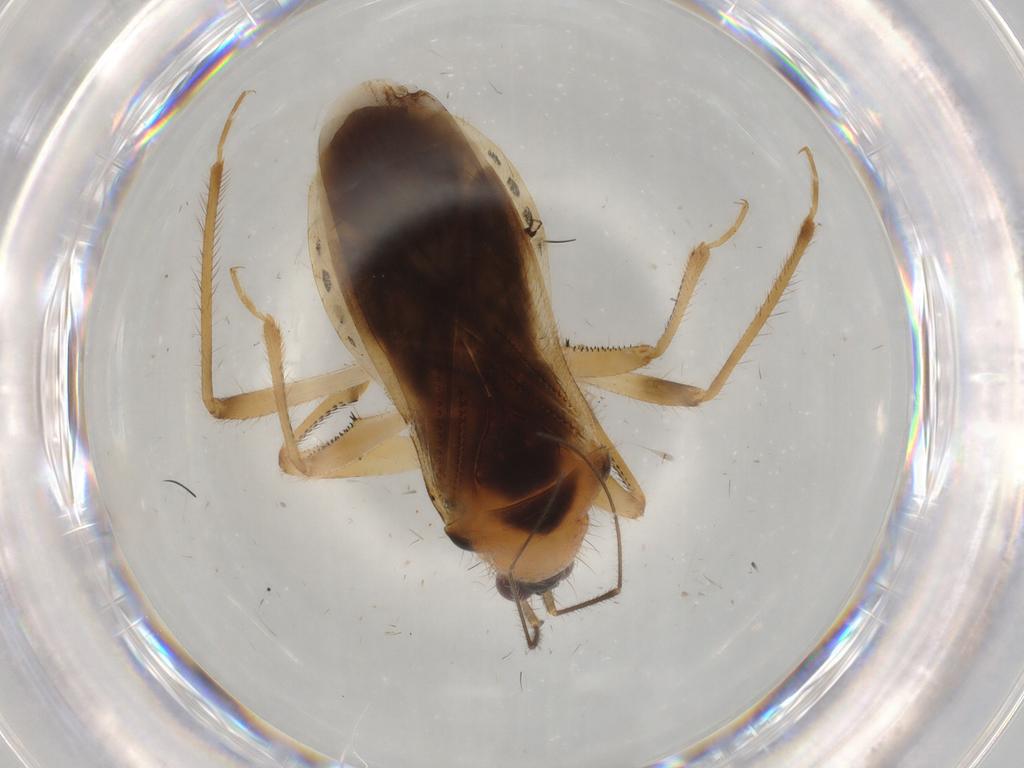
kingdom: Animalia
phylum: Arthropoda
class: Insecta
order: Hemiptera
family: Nabidae
